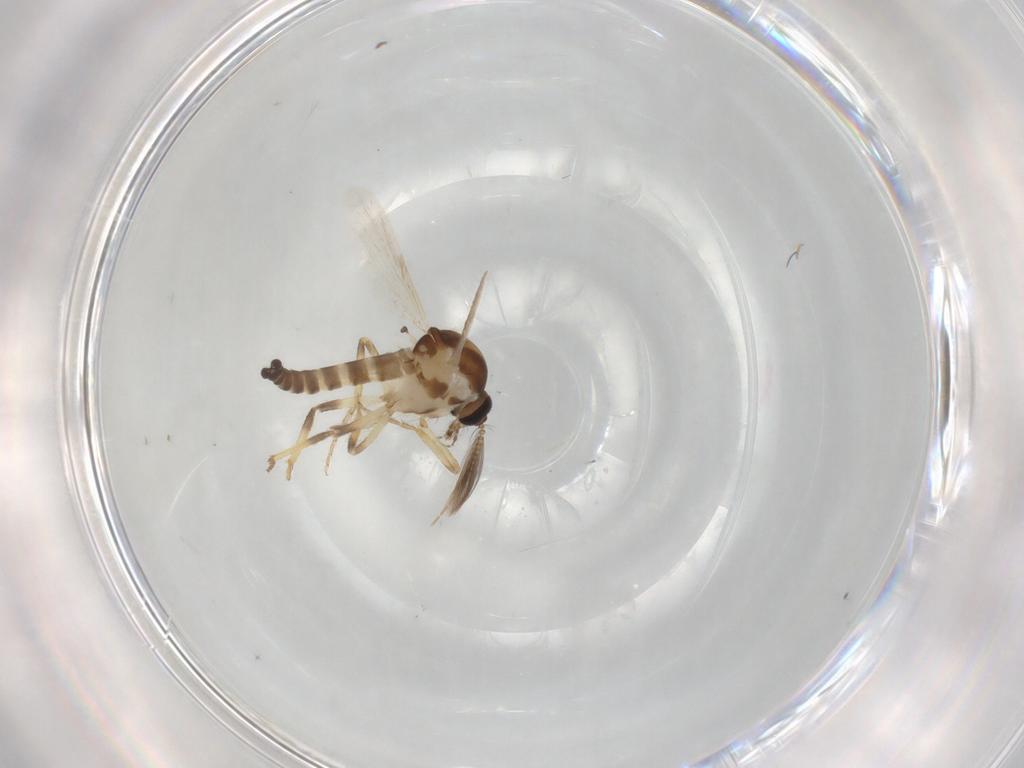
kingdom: Animalia
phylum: Arthropoda
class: Insecta
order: Diptera
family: Ceratopogonidae
